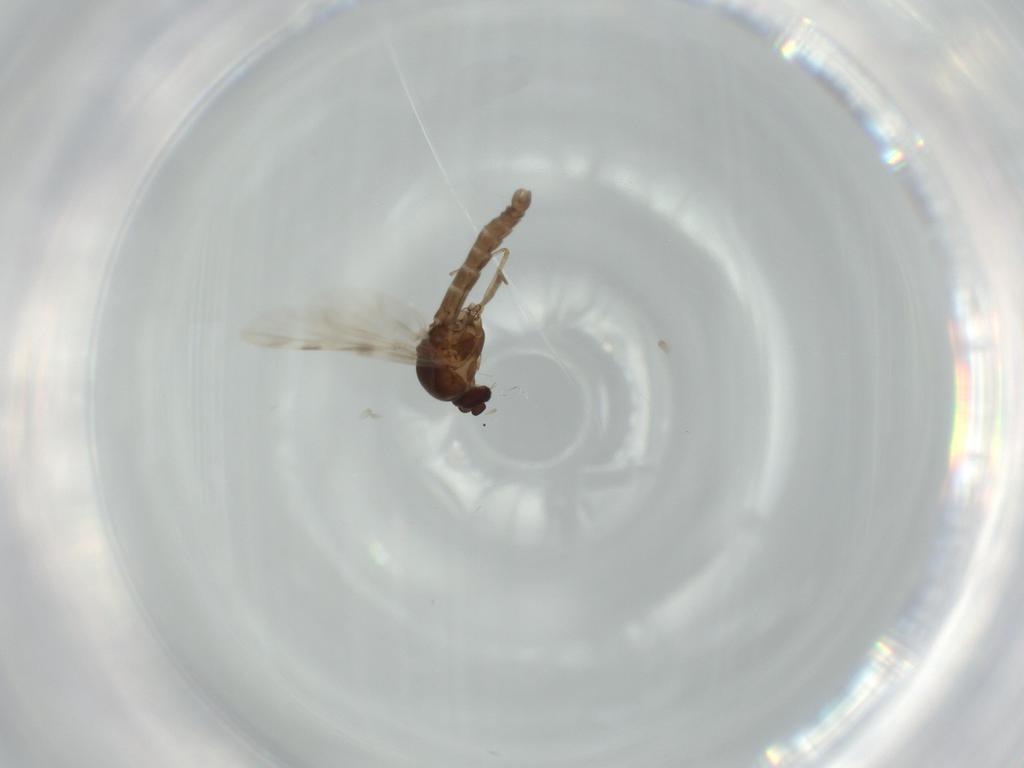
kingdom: Animalia
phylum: Arthropoda
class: Insecta
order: Diptera
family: Ceratopogonidae
